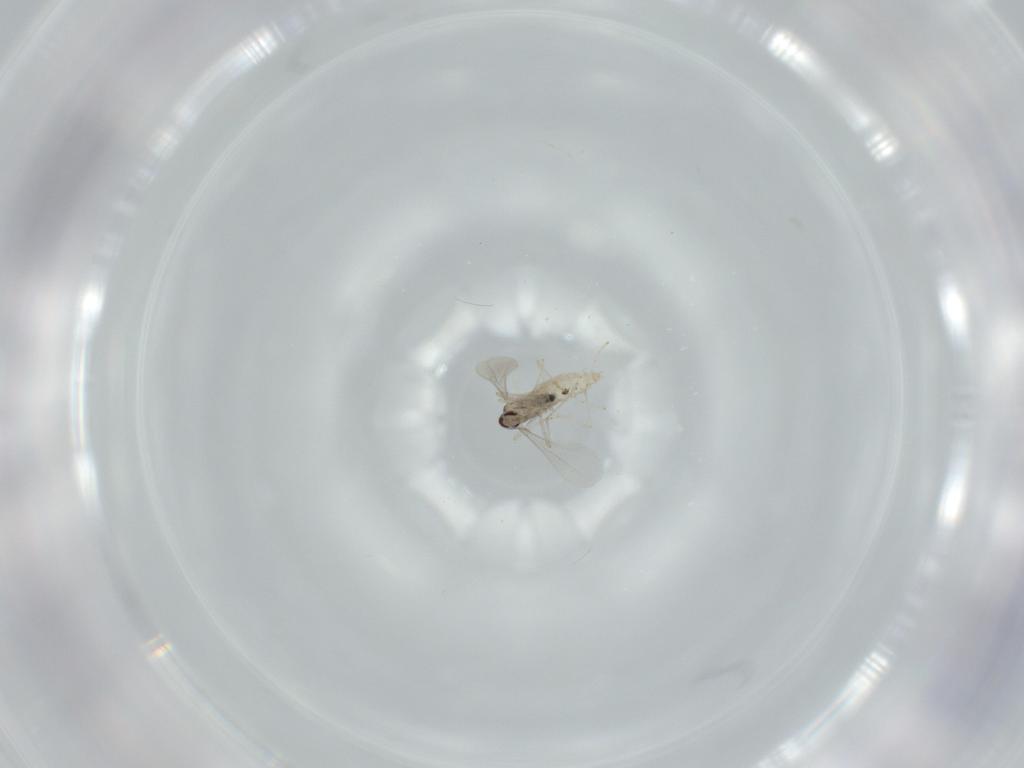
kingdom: Animalia
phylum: Arthropoda
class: Insecta
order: Diptera
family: Cecidomyiidae
